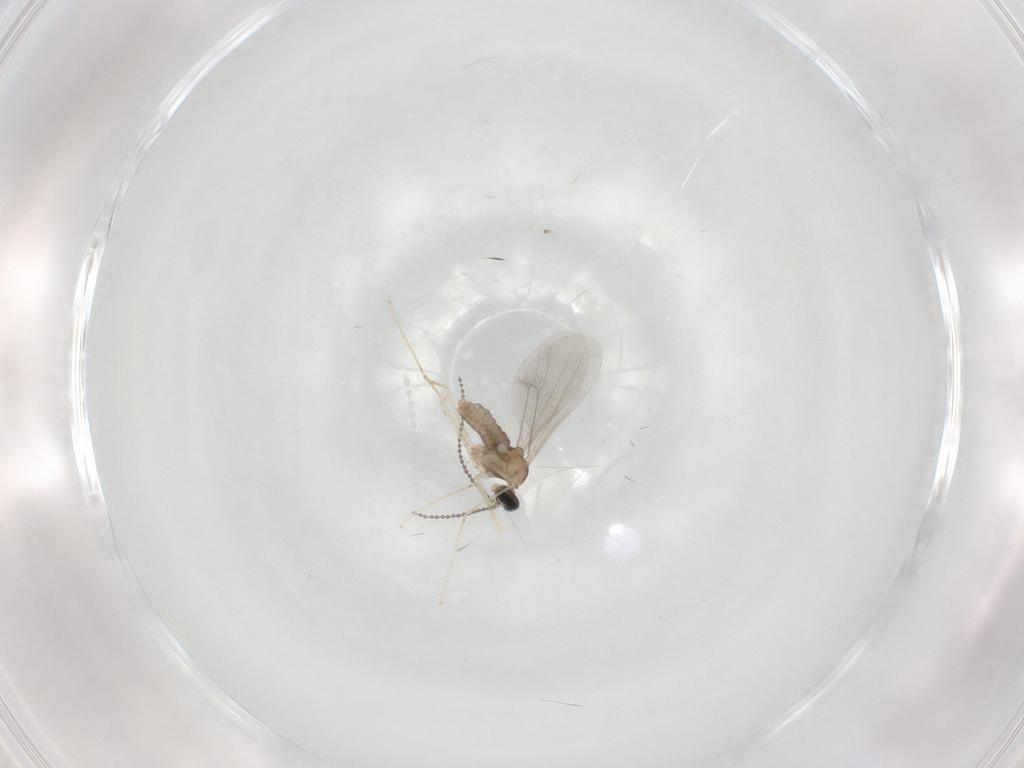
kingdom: Animalia
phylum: Arthropoda
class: Insecta
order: Diptera
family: Cecidomyiidae
